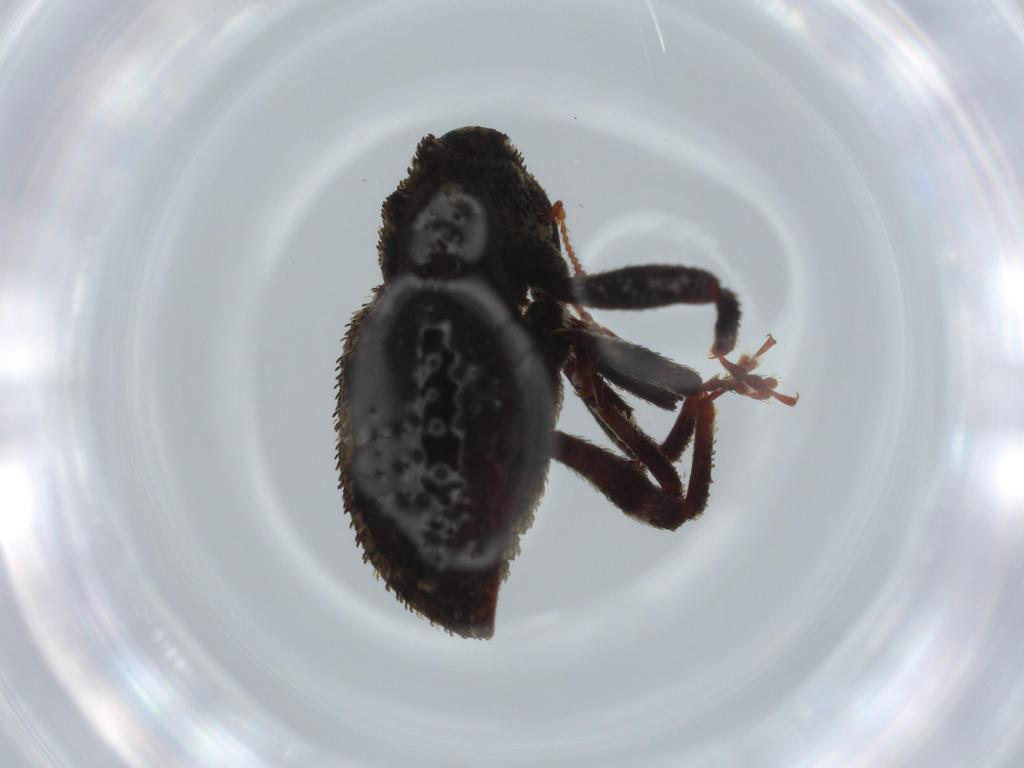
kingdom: Animalia
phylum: Arthropoda
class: Insecta
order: Coleoptera
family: Curculionidae
